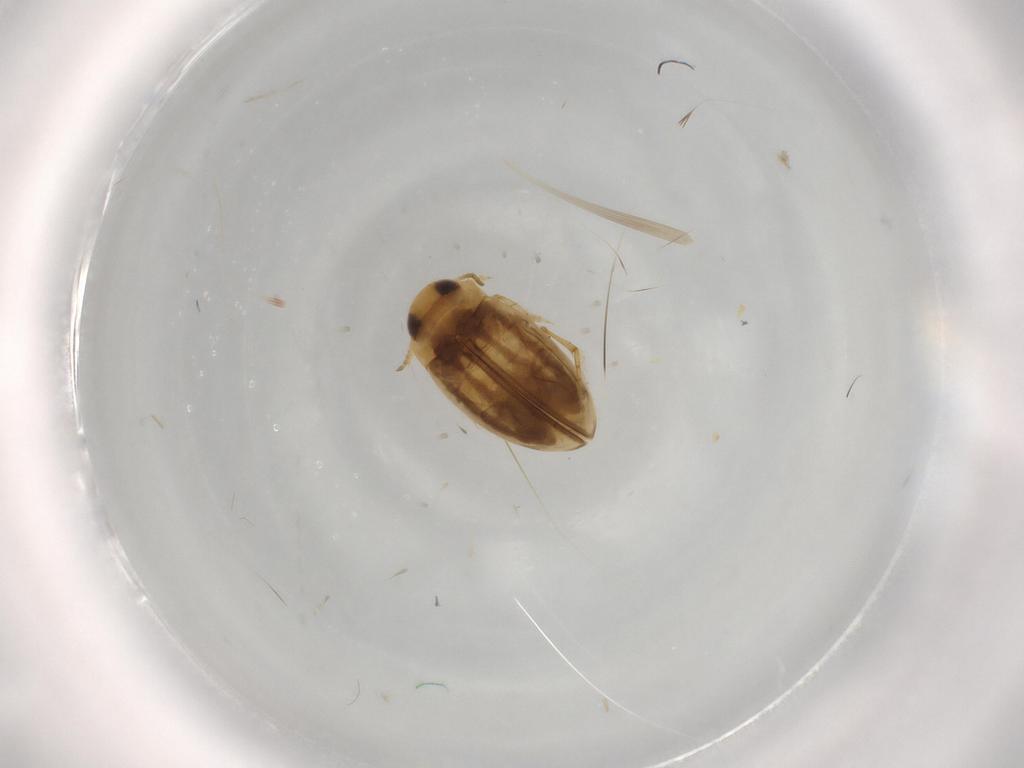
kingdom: Animalia
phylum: Arthropoda
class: Insecta
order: Coleoptera
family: Dytiscidae
